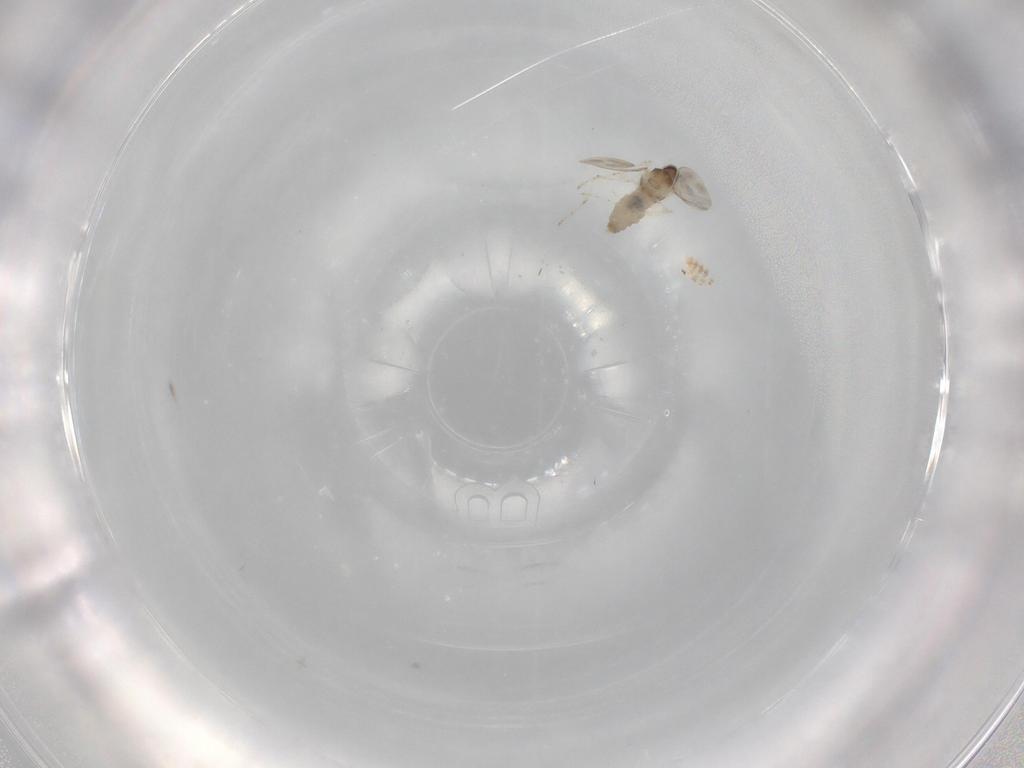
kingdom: Animalia
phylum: Arthropoda
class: Insecta
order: Diptera
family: Cecidomyiidae
